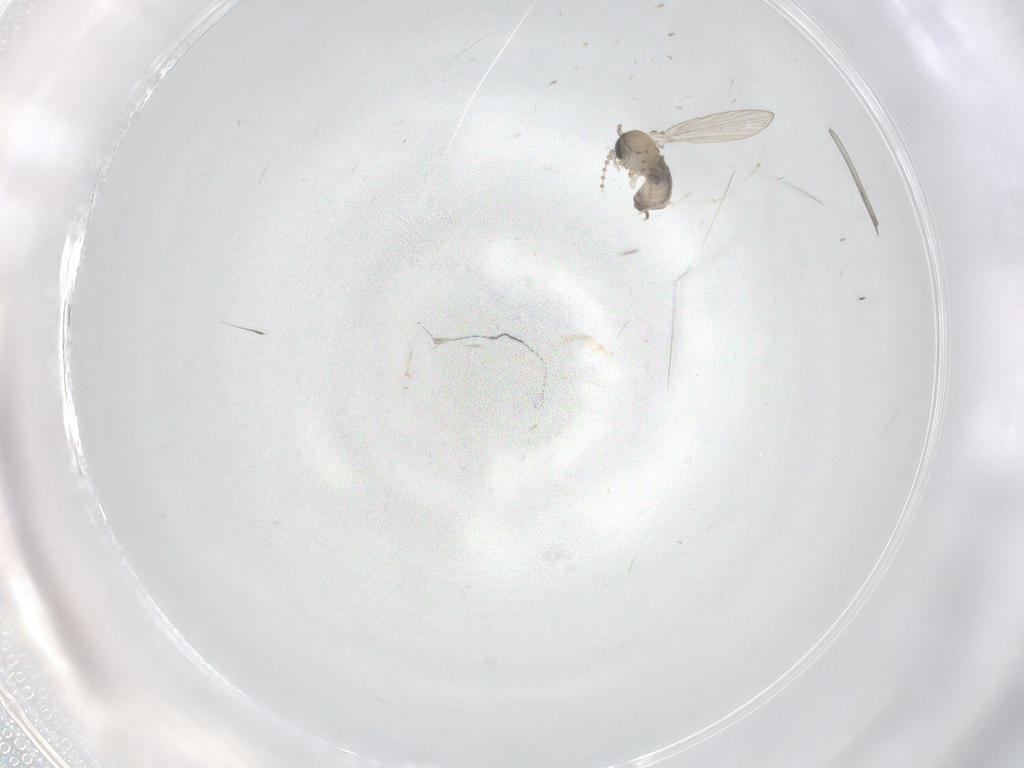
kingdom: Animalia
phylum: Arthropoda
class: Insecta
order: Diptera
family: Psychodidae
